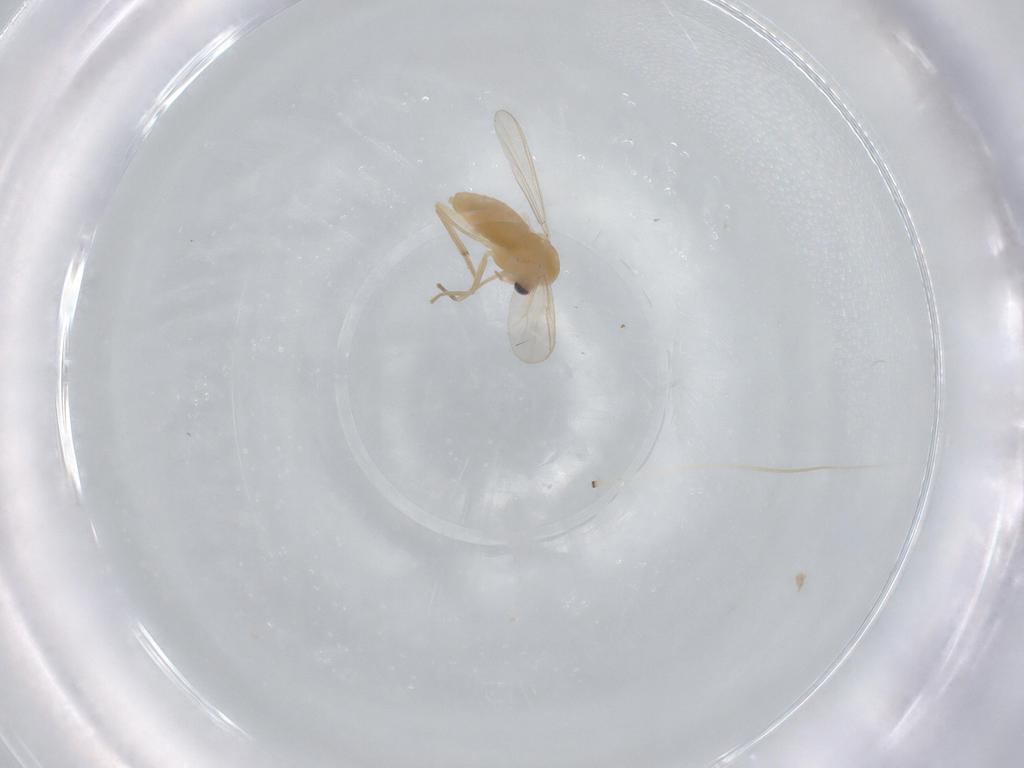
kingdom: Animalia
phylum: Arthropoda
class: Insecta
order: Diptera
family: Chironomidae
